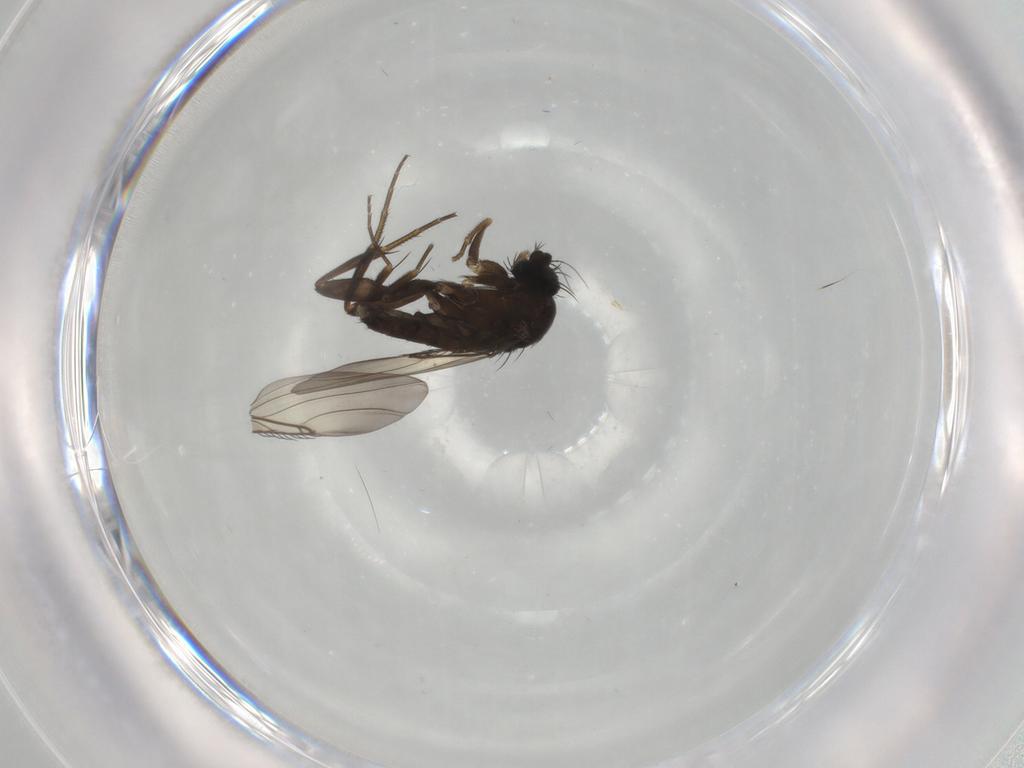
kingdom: Animalia
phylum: Arthropoda
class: Insecta
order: Diptera
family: Phoridae
